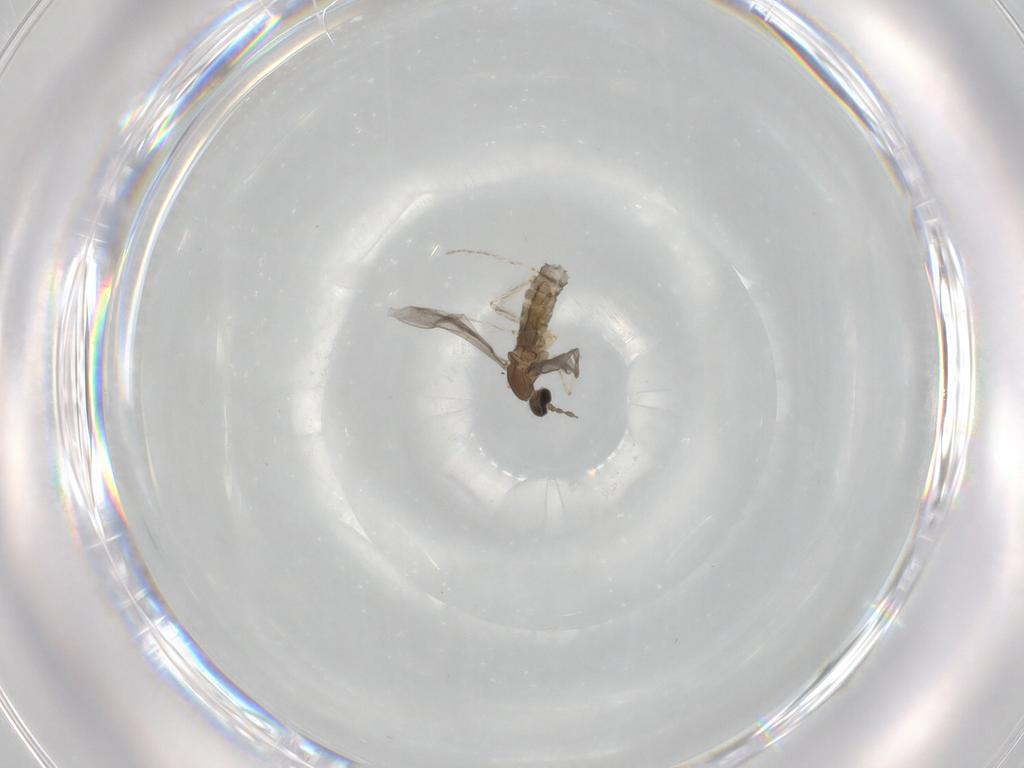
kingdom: Animalia
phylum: Arthropoda
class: Insecta
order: Diptera
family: Cecidomyiidae
